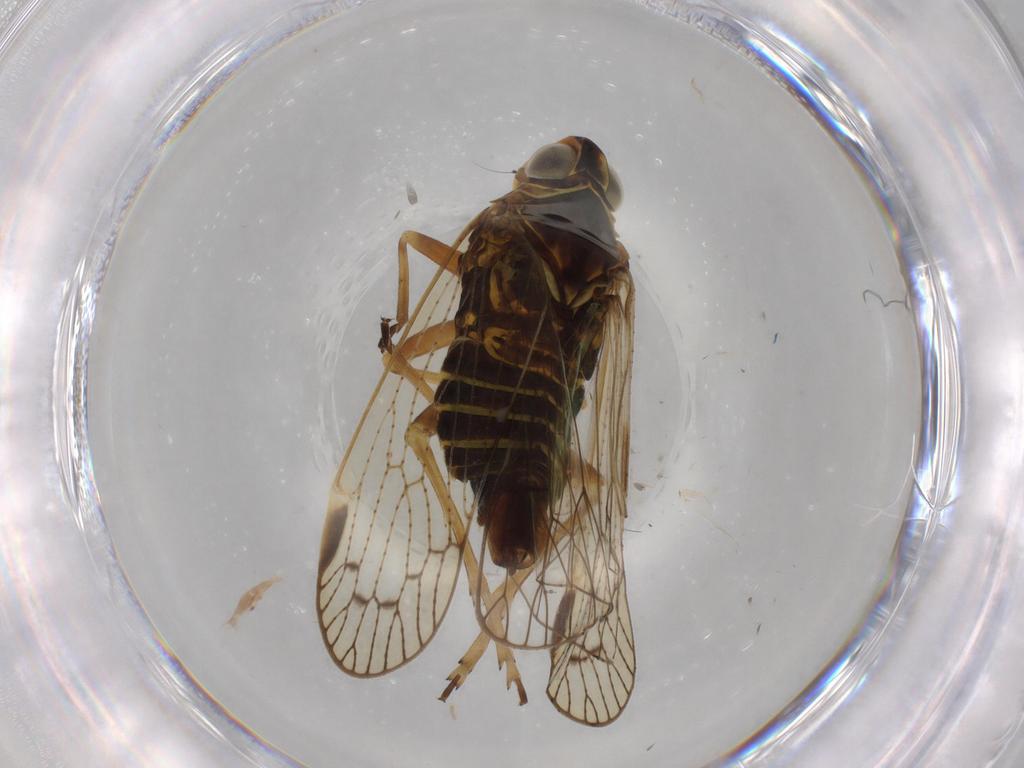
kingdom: Animalia
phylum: Arthropoda
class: Insecta
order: Hemiptera
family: Cixiidae
